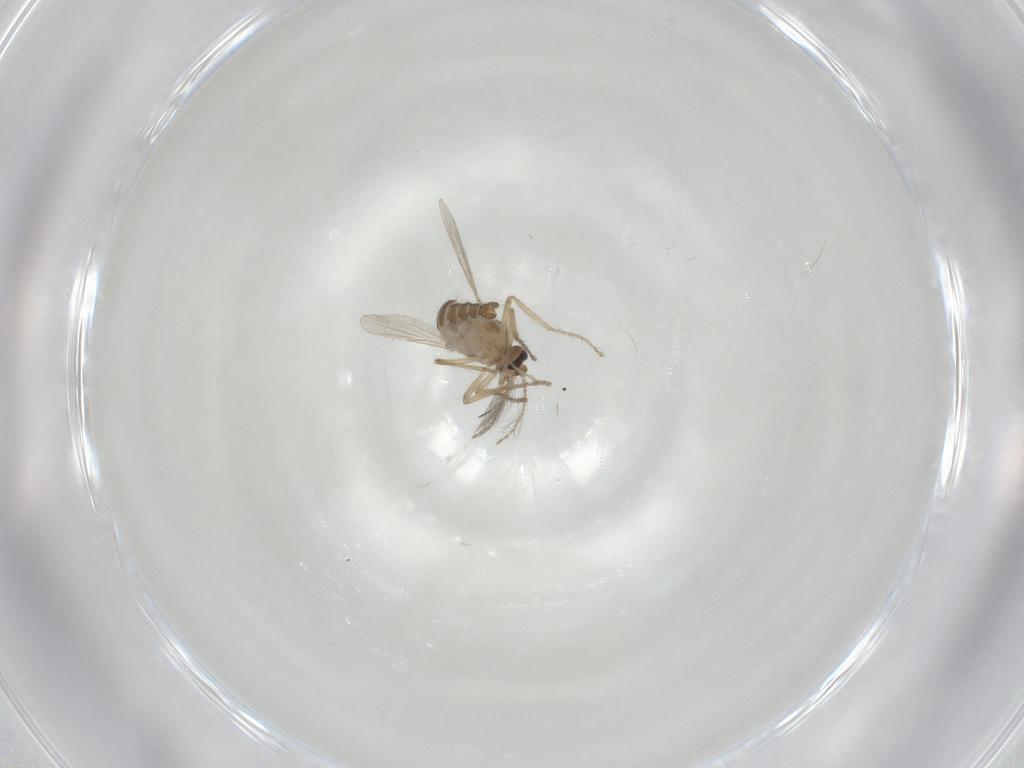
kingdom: Animalia
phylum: Arthropoda
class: Insecta
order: Diptera
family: Ceratopogonidae
